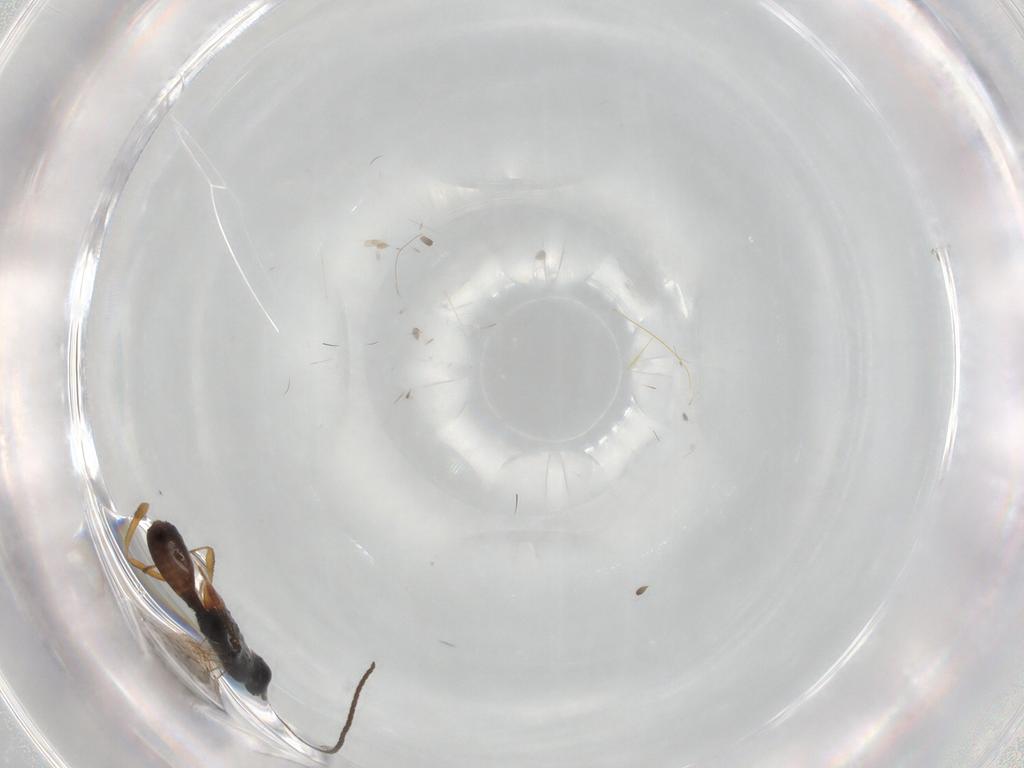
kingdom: Animalia
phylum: Arthropoda
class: Insecta
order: Hymenoptera
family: Braconidae
